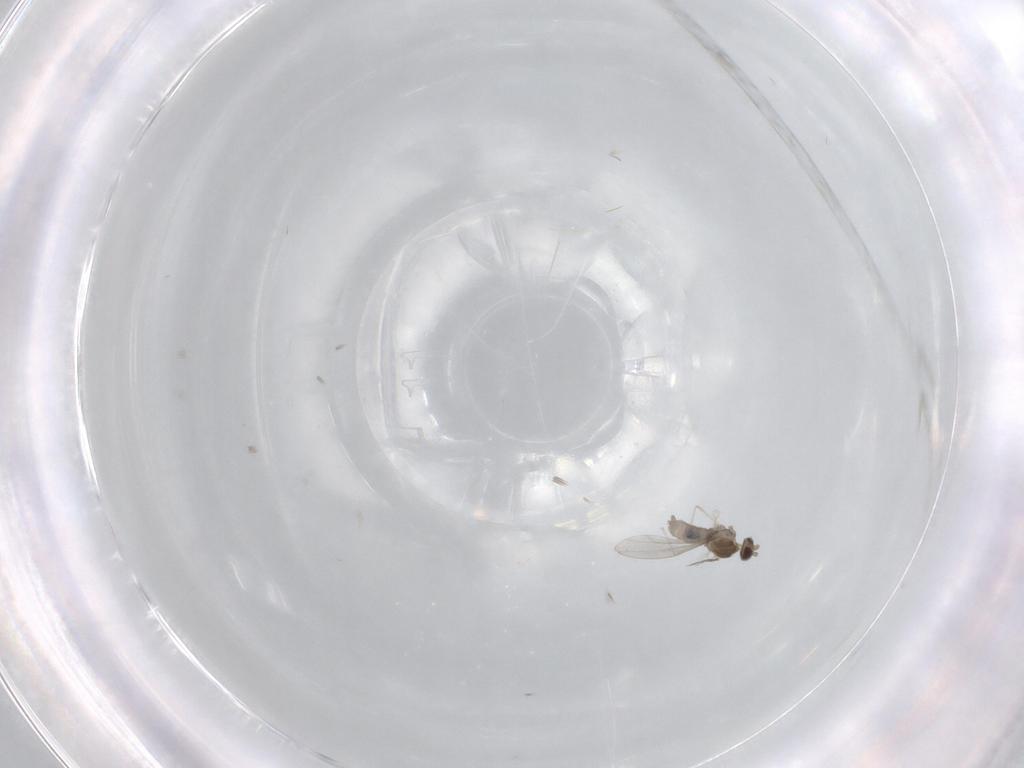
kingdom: Animalia
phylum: Arthropoda
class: Insecta
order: Diptera
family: Cecidomyiidae
